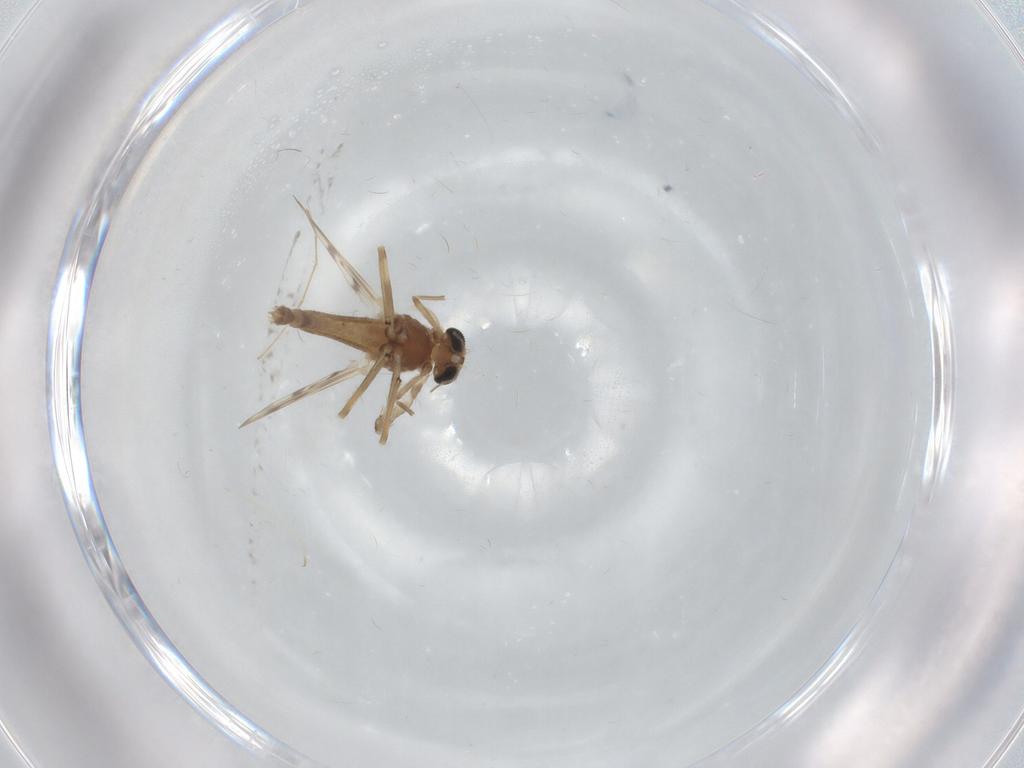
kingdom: Animalia
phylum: Arthropoda
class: Insecta
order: Diptera
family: Chironomidae
